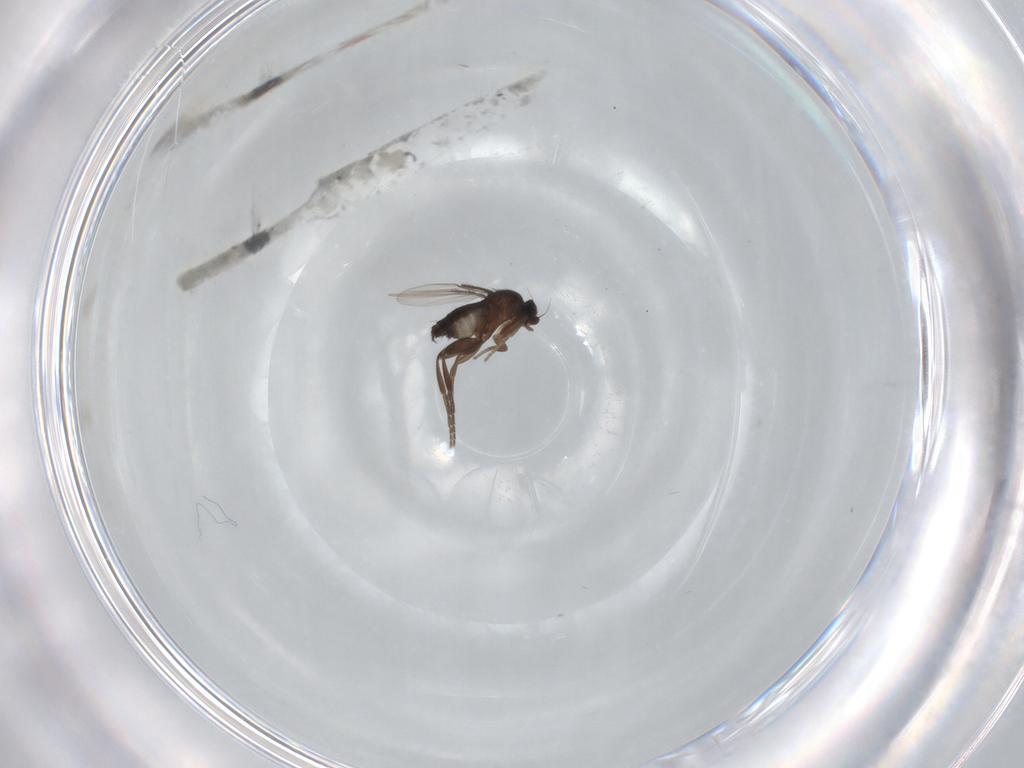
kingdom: Animalia
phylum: Arthropoda
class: Insecta
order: Diptera
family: Phoridae
